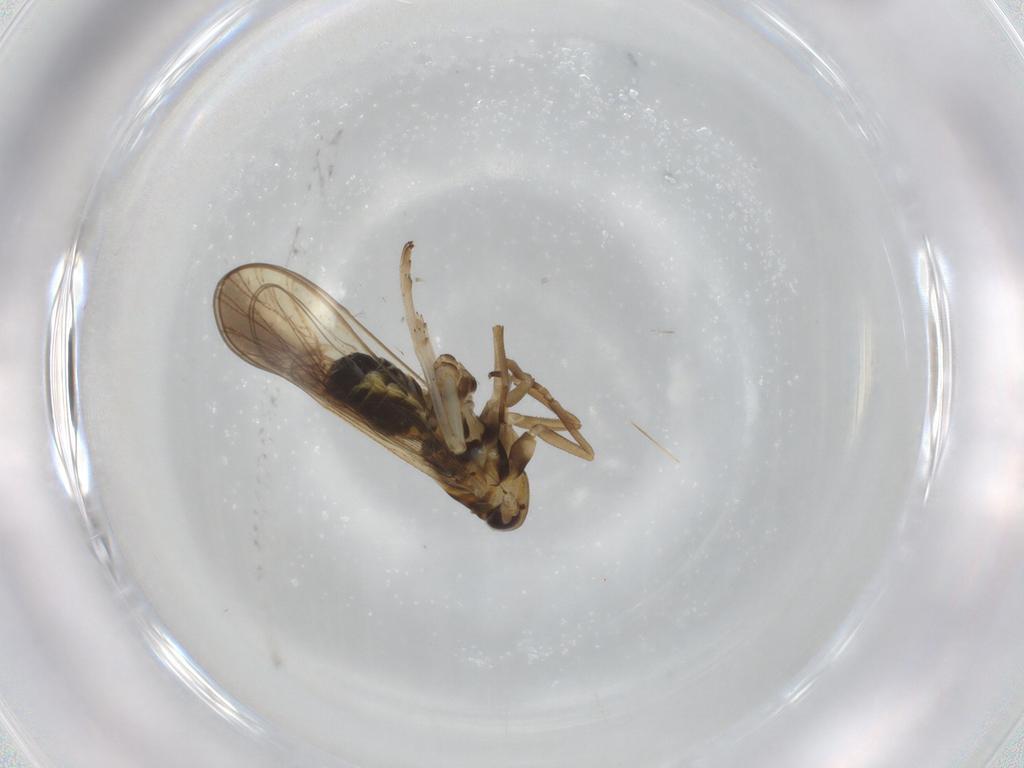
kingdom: Animalia
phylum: Arthropoda
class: Insecta
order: Hemiptera
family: Delphacidae
